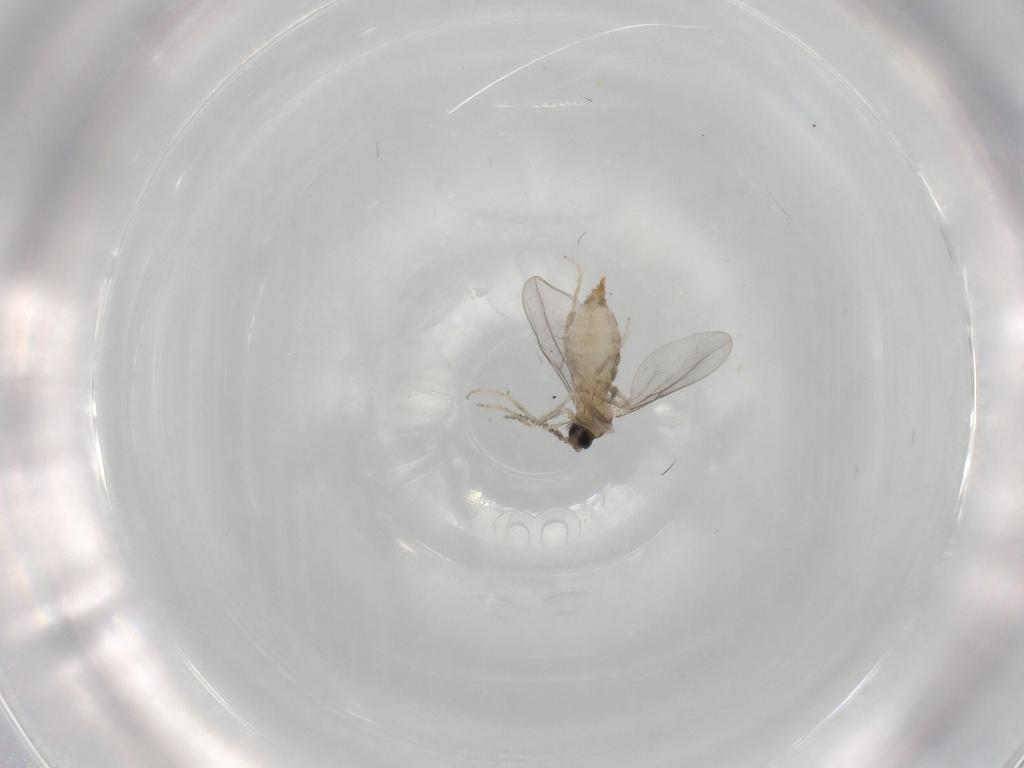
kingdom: Animalia
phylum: Arthropoda
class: Insecta
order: Diptera
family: Cecidomyiidae
